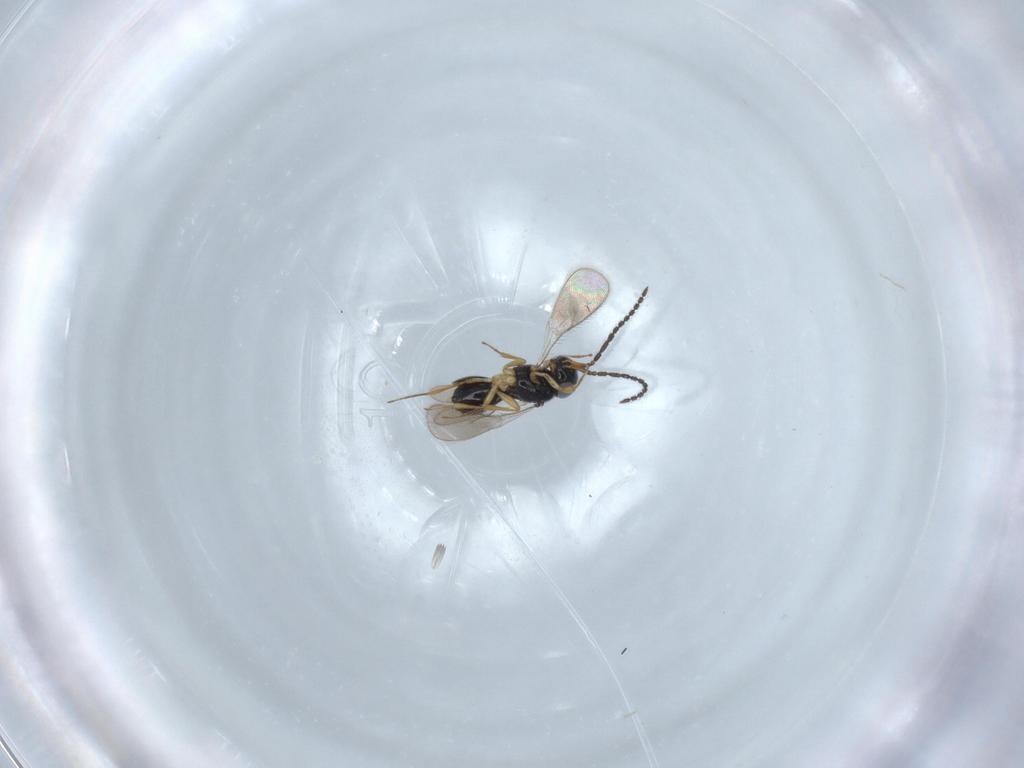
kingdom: Animalia
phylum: Arthropoda
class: Insecta
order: Hymenoptera
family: Scelionidae
